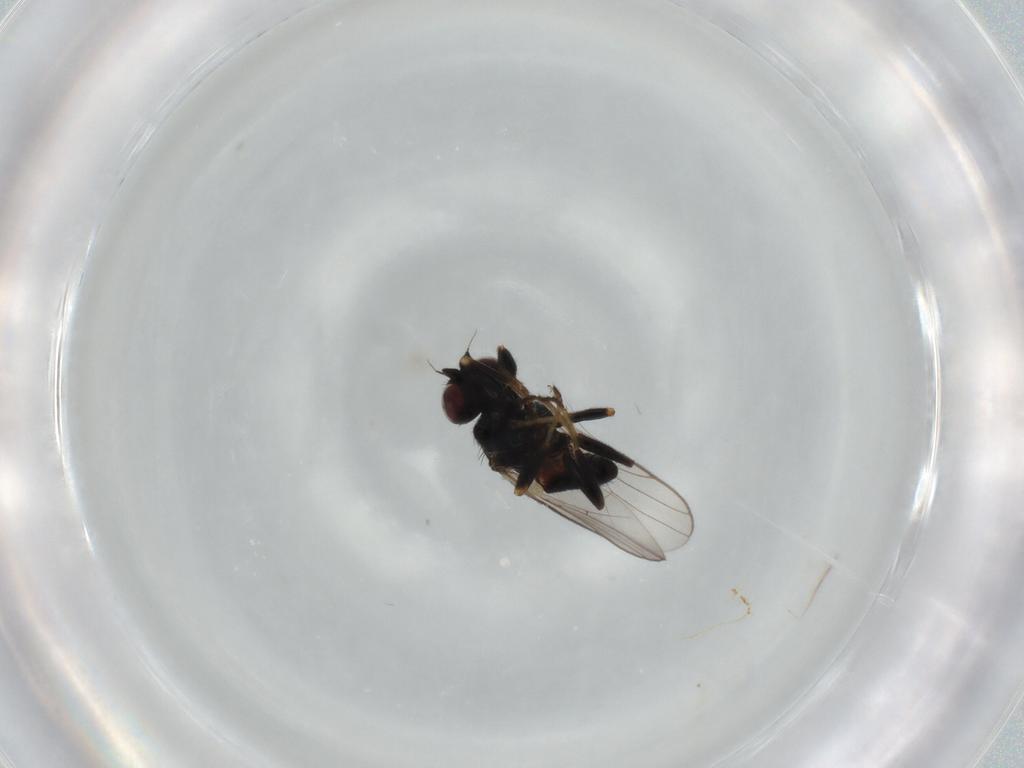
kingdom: Animalia
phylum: Arthropoda
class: Insecta
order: Diptera
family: Chloropidae
